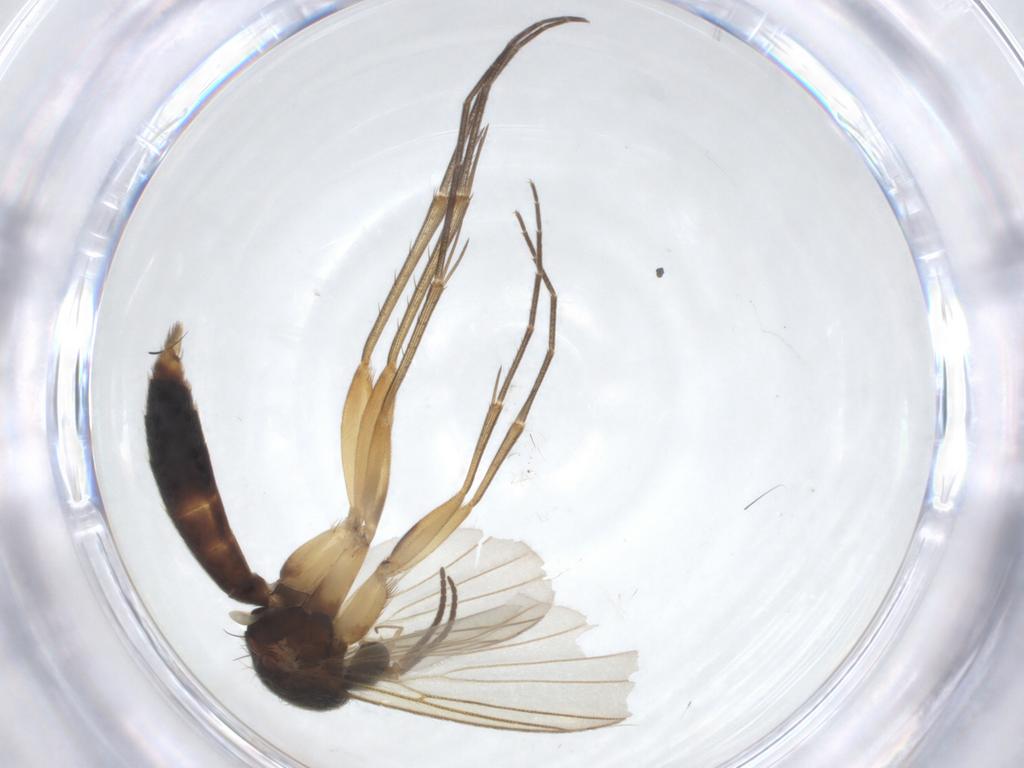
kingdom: Animalia
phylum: Arthropoda
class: Insecta
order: Diptera
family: Mycetophilidae
